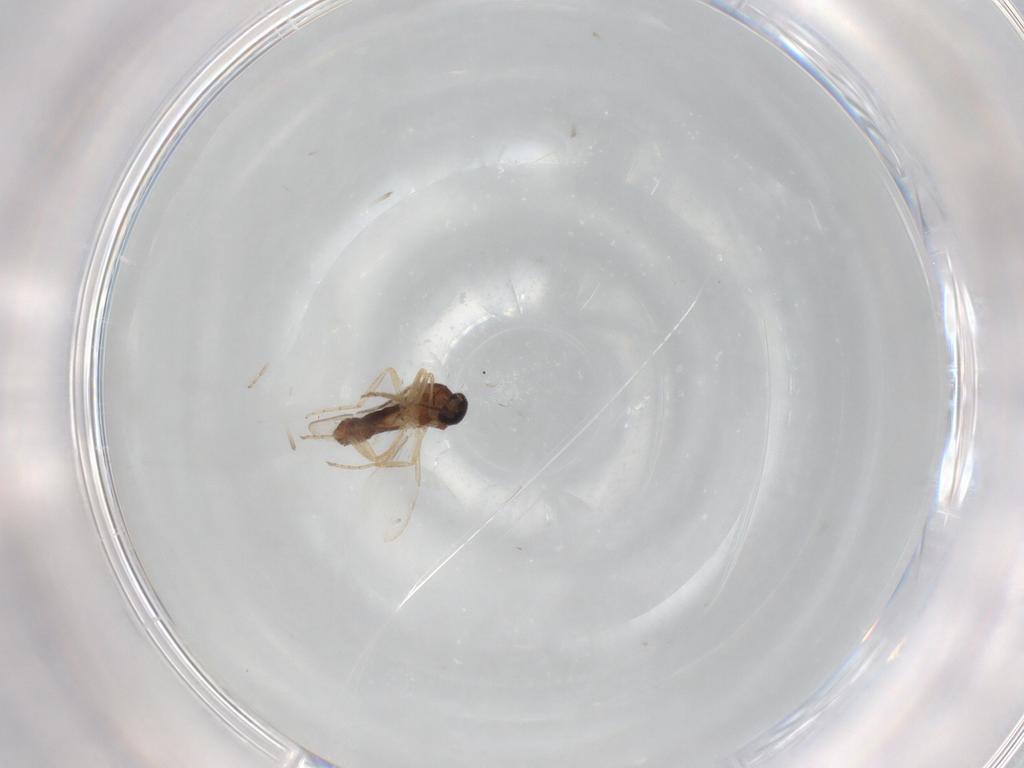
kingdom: Animalia
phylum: Arthropoda
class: Insecta
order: Diptera
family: Ceratopogonidae
